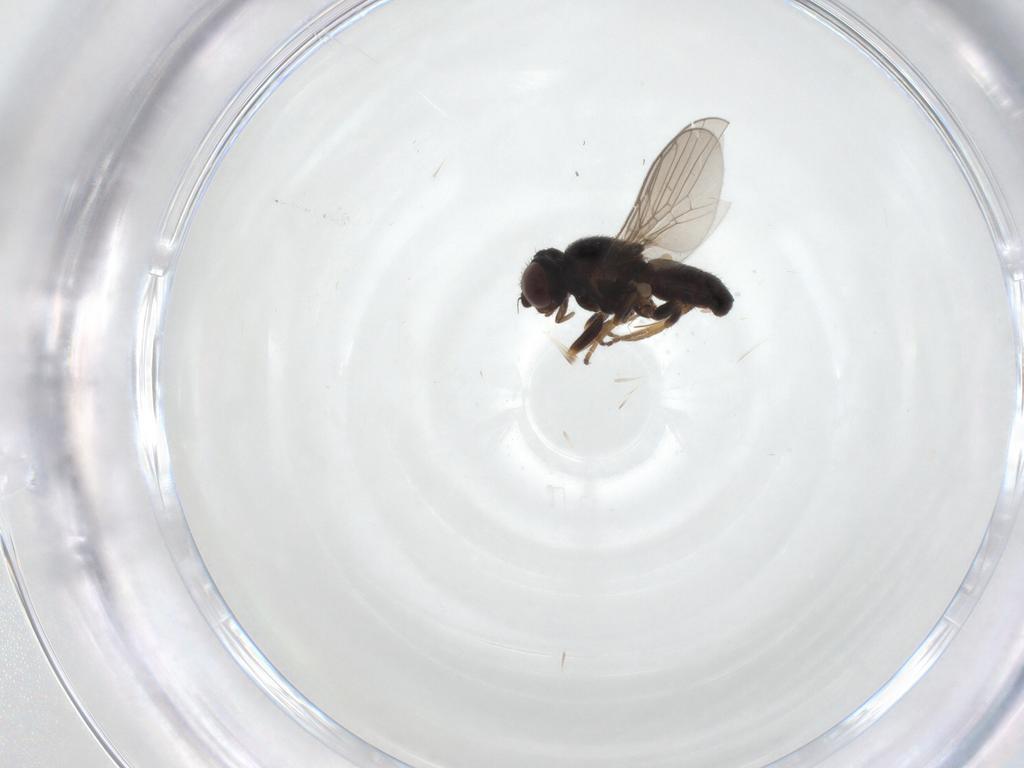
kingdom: Animalia
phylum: Arthropoda
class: Insecta
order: Diptera
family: Chloropidae
